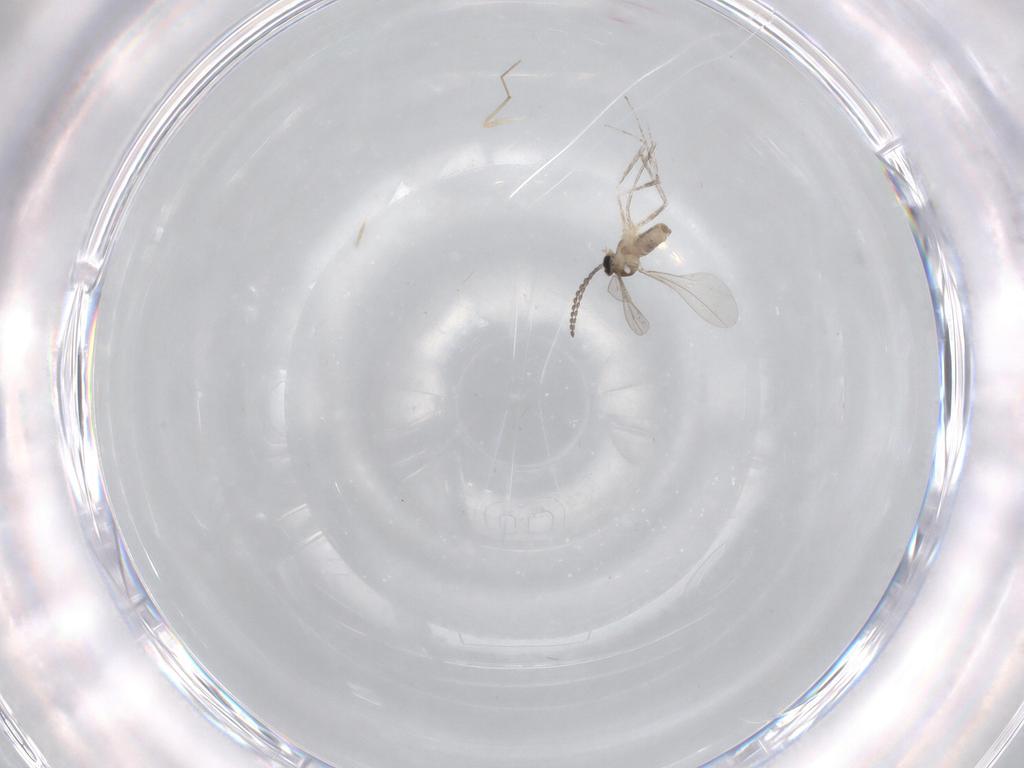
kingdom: Animalia
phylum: Arthropoda
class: Insecta
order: Diptera
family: Cecidomyiidae
